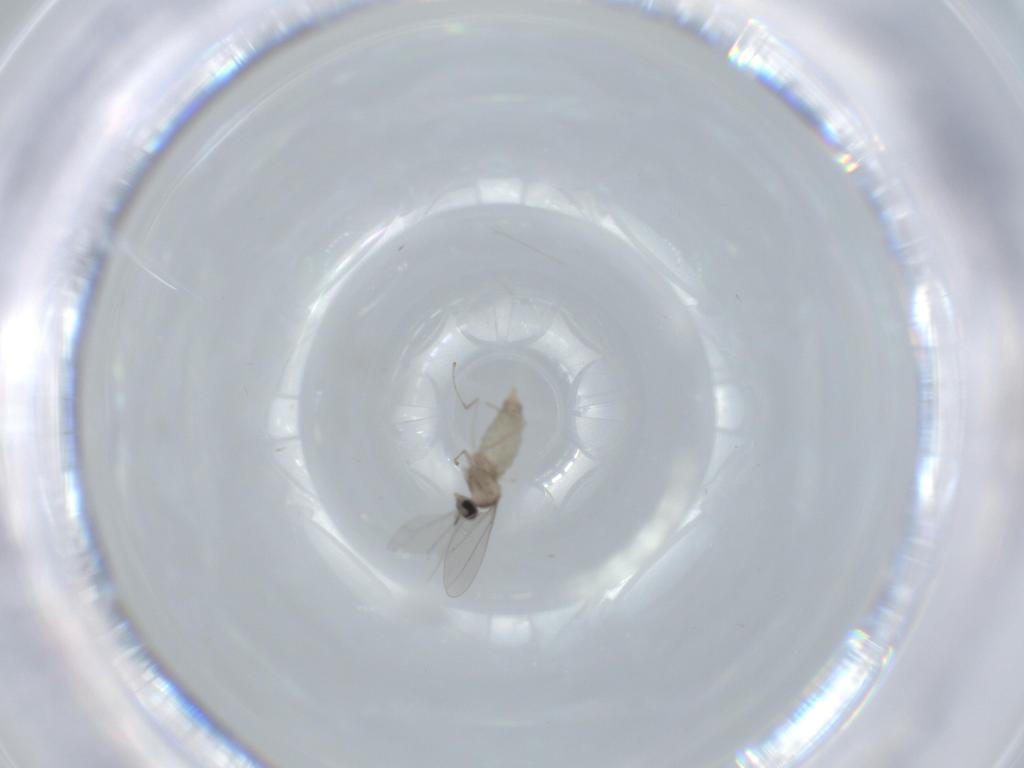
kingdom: Animalia
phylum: Arthropoda
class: Insecta
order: Diptera
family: Cecidomyiidae
